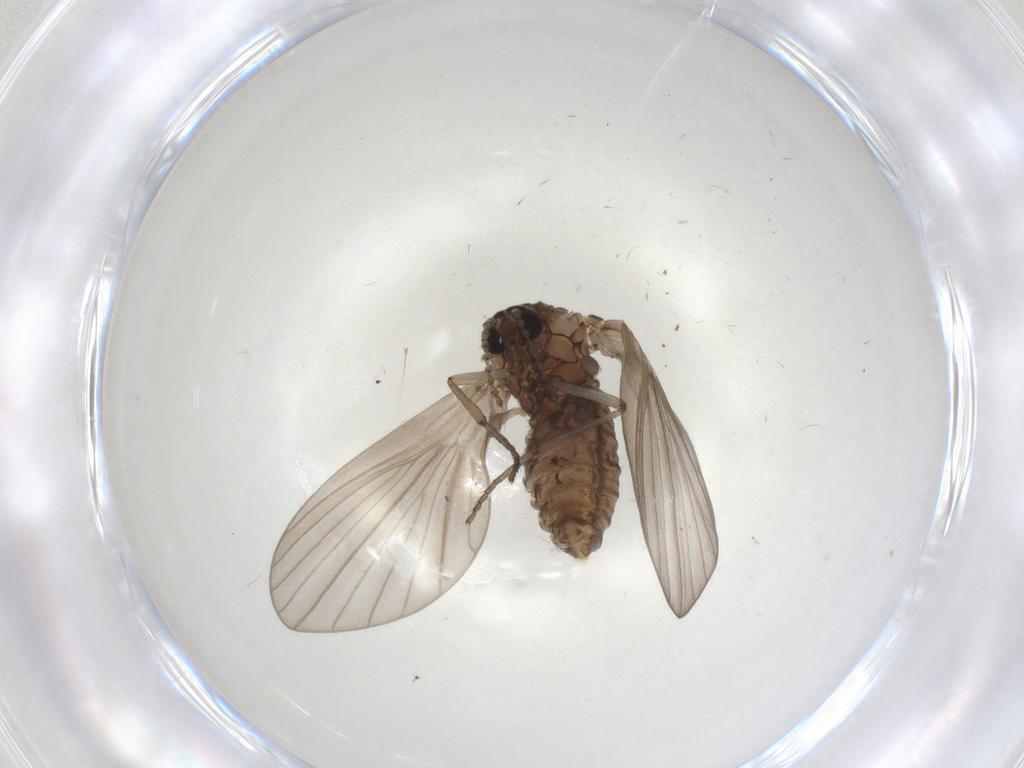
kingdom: Animalia
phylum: Arthropoda
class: Insecta
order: Diptera
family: Psychodidae
